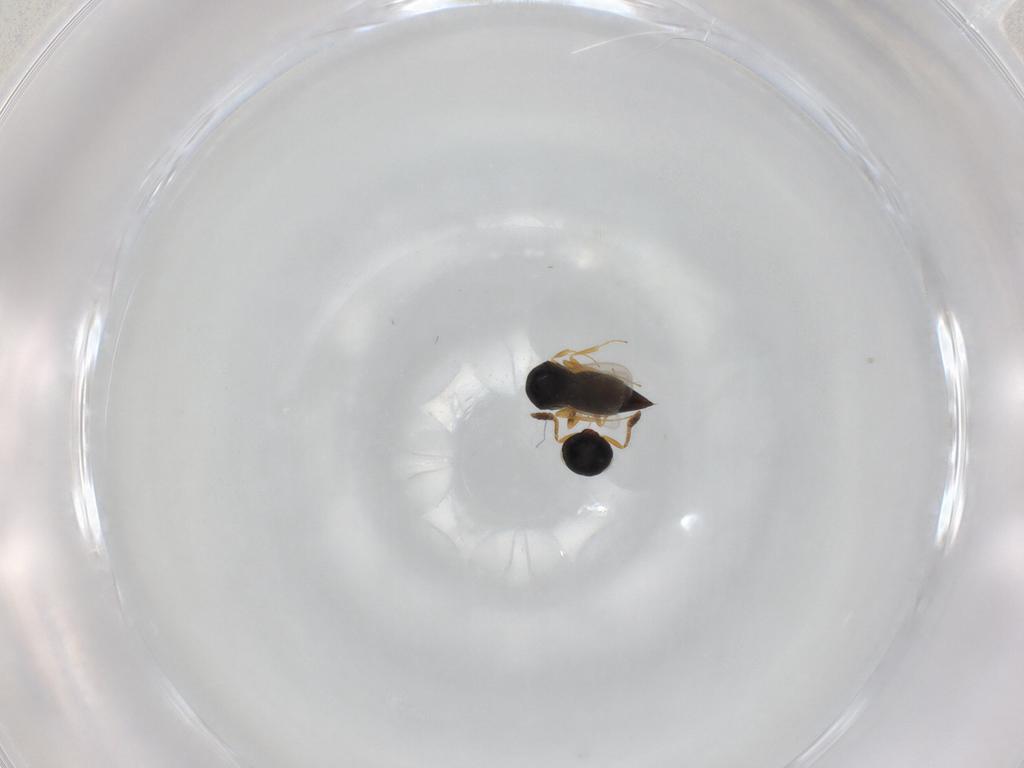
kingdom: Animalia
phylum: Arthropoda
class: Insecta
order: Hymenoptera
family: Scelionidae
